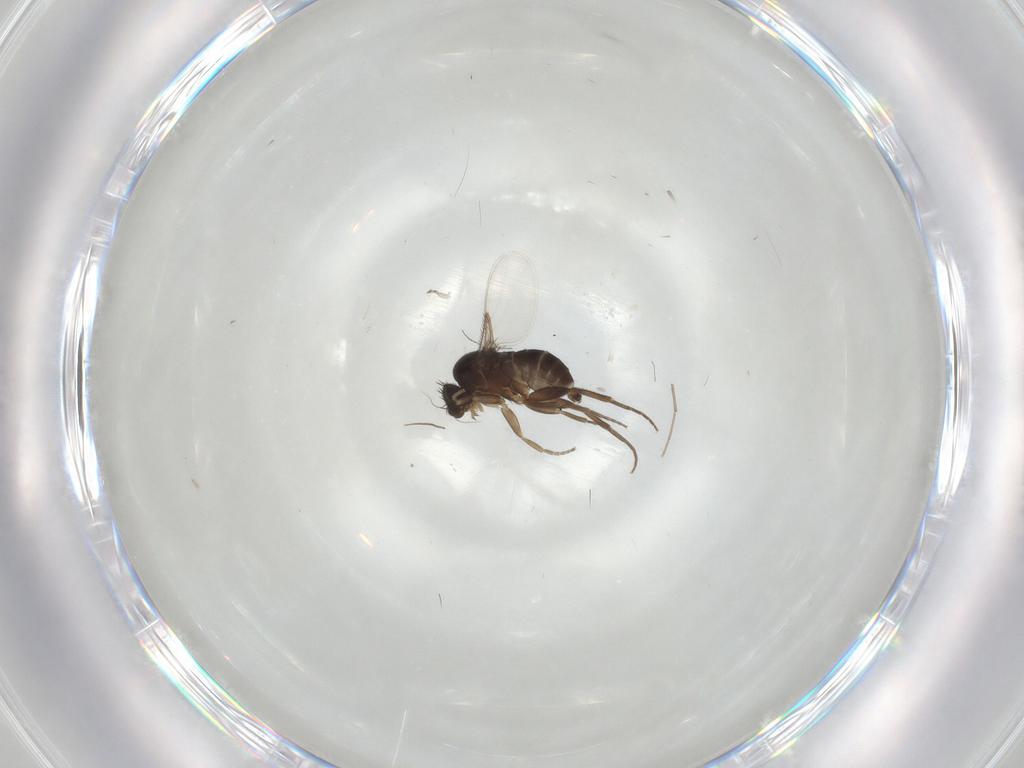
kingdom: Animalia
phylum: Arthropoda
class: Insecta
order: Diptera
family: Phoridae
